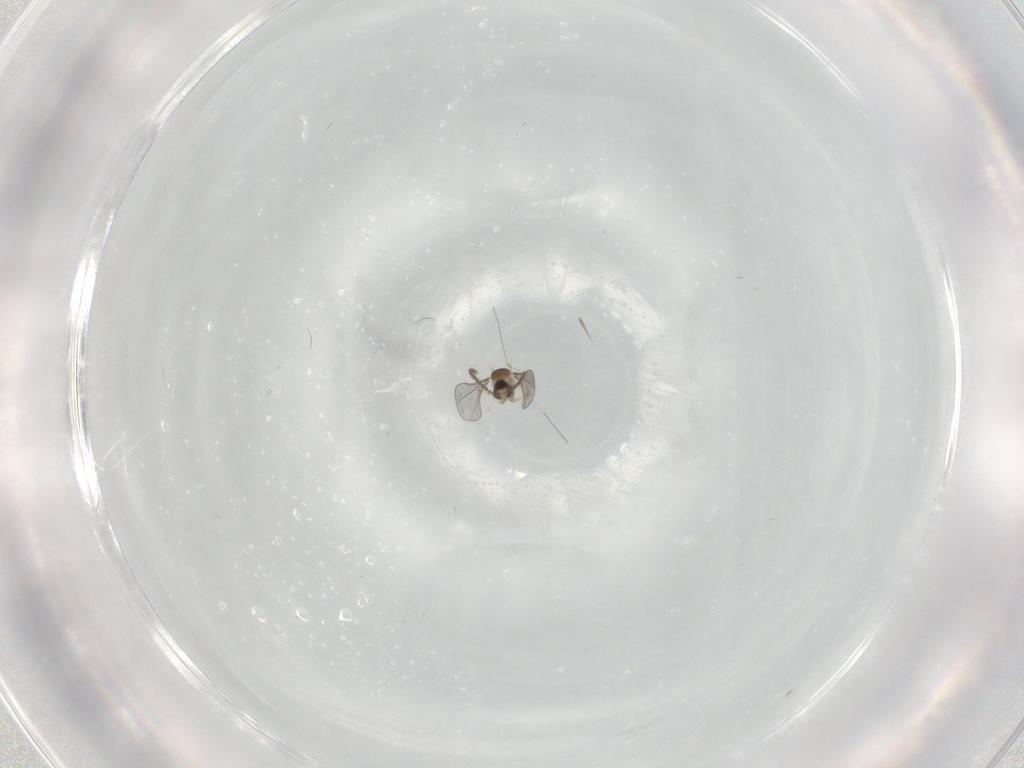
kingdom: Animalia
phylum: Arthropoda
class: Insecta
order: Diptera
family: Cecidomyiidae
